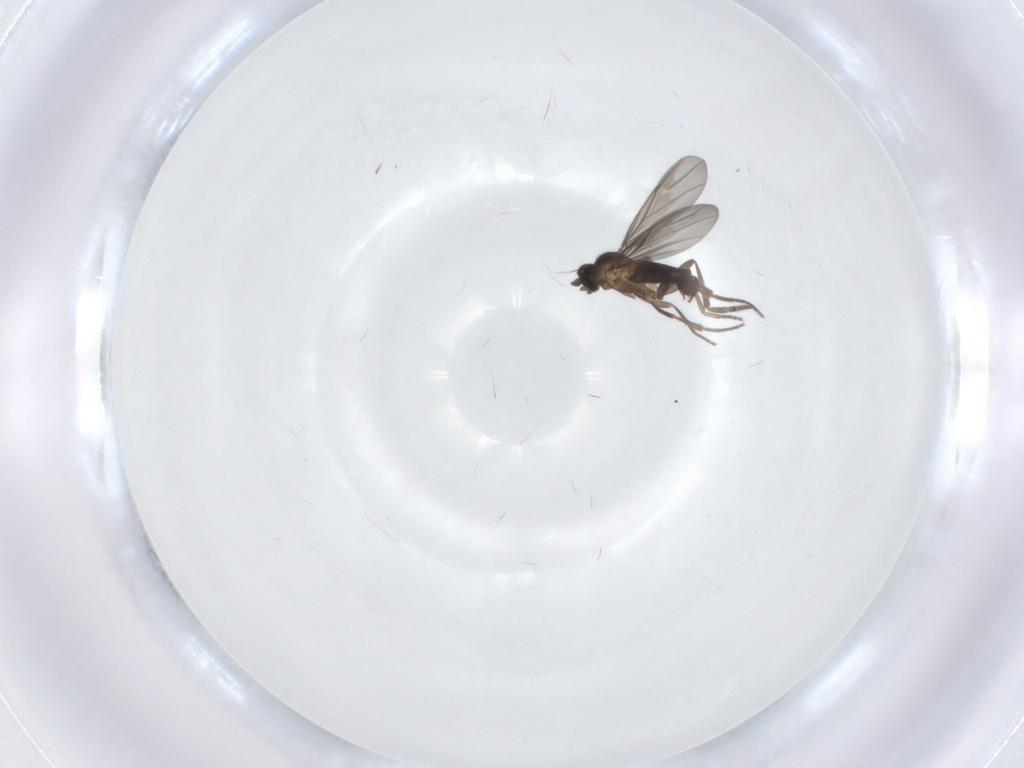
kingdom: Animalia
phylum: Arthropoda
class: Insecta
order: Diptera
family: Phoridae
